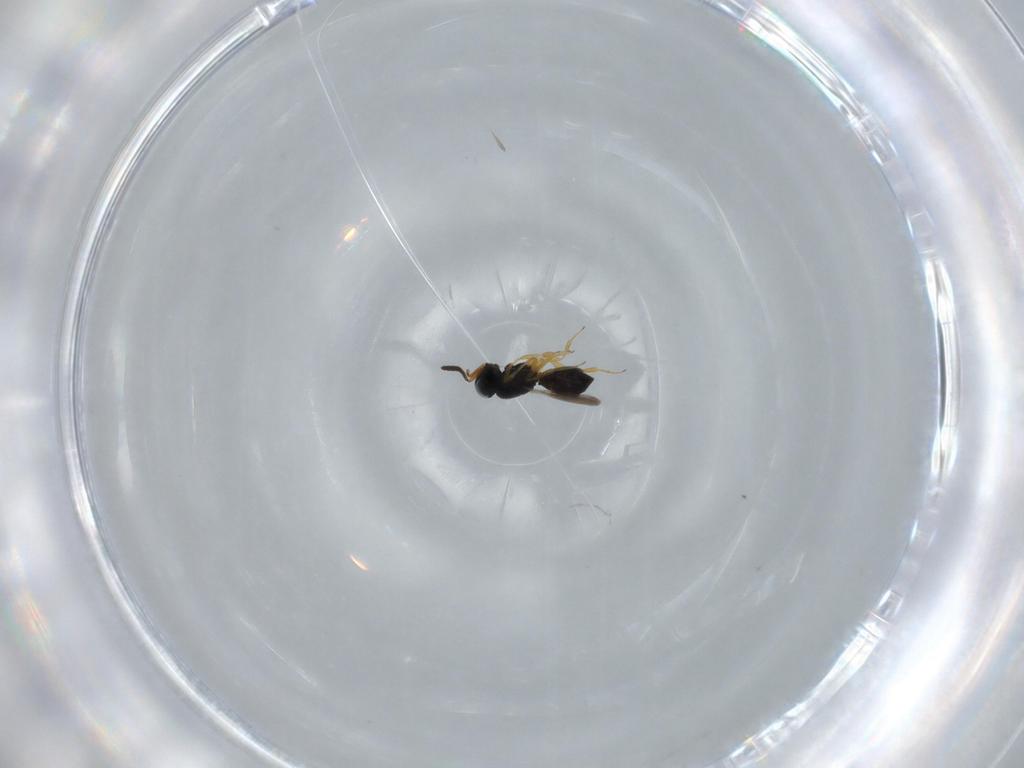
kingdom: Animalia
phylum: Arthropoda
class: Insecta
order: Hymenoptera
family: Scelionidae
